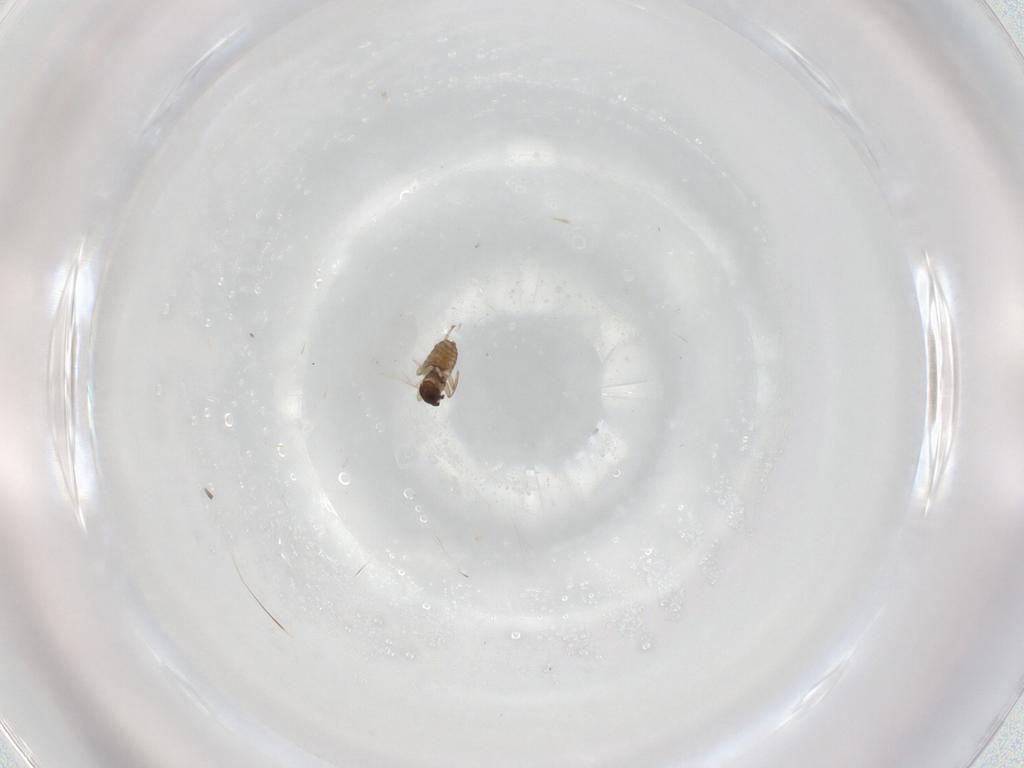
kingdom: Animalia
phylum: Arthropoda
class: Insecta
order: Diptera
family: Cecidomyiidae
